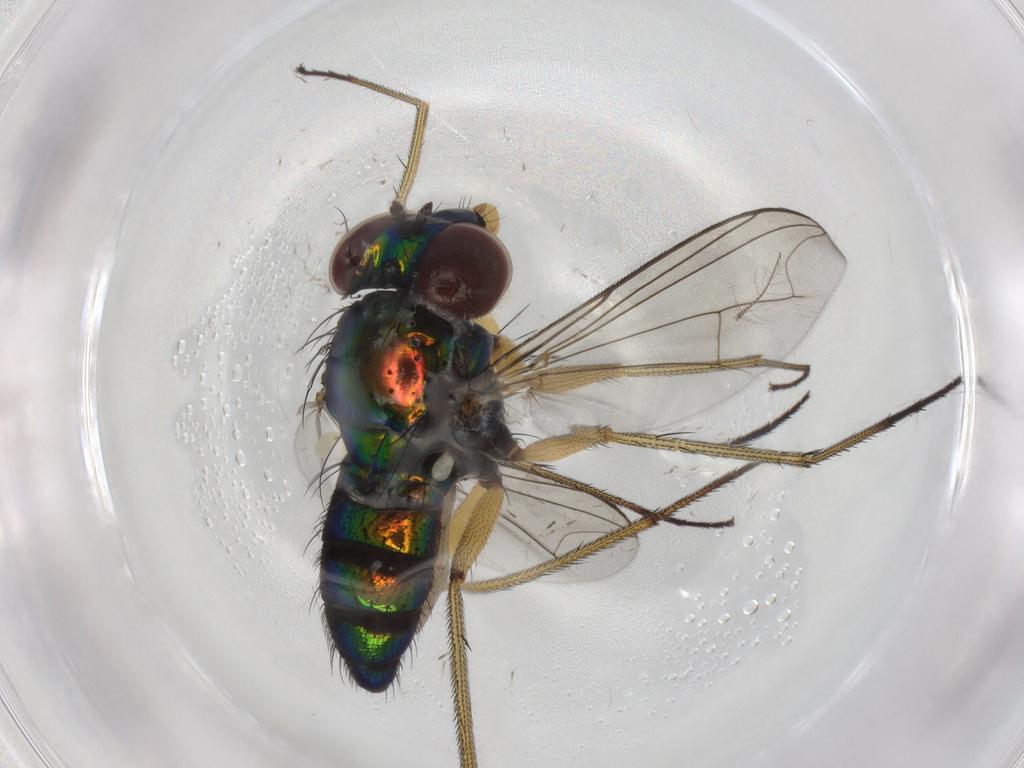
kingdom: Animalia
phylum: Arthropoda
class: Insecta
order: Diptera
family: Dolichopodidae
